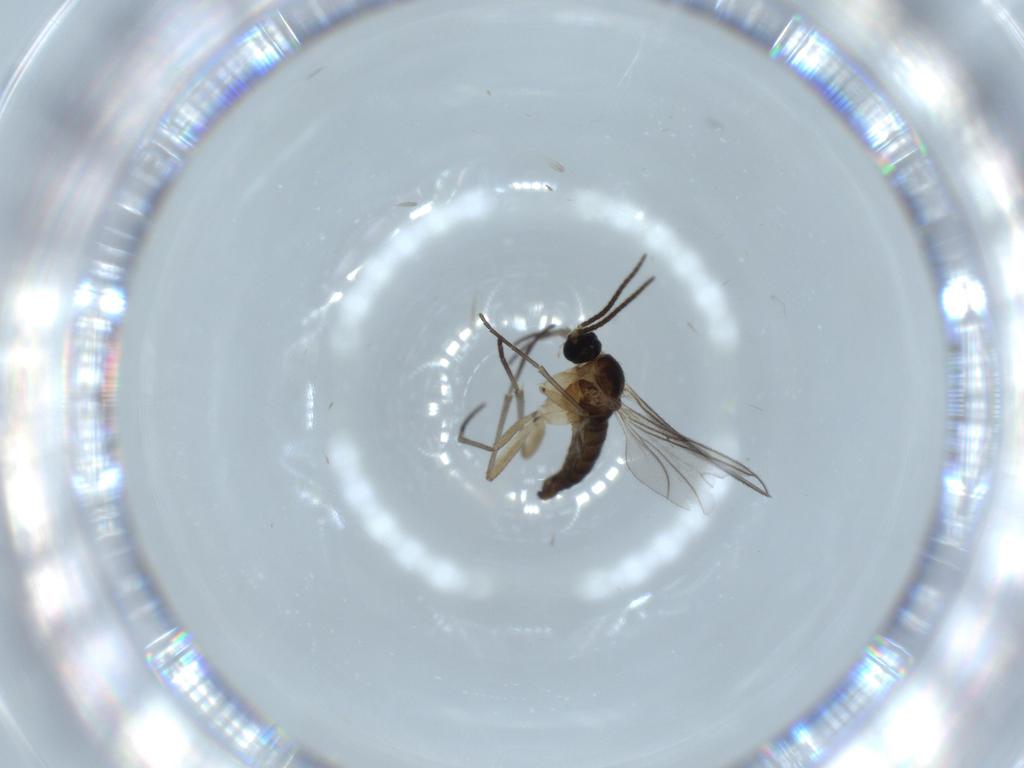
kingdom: Animalia
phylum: Arthropoda
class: Insecta
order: Diptera
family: Sciaridae
